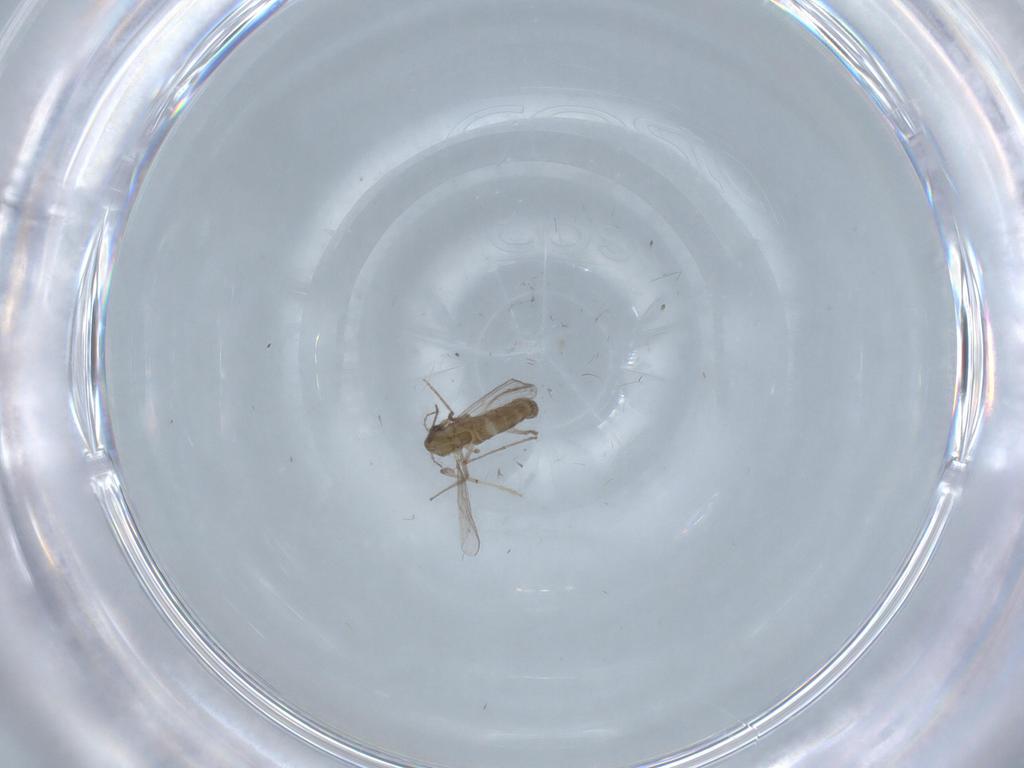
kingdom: Animalia
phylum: Arthropoda
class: Insecta
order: Diptera
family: Chironomidae
